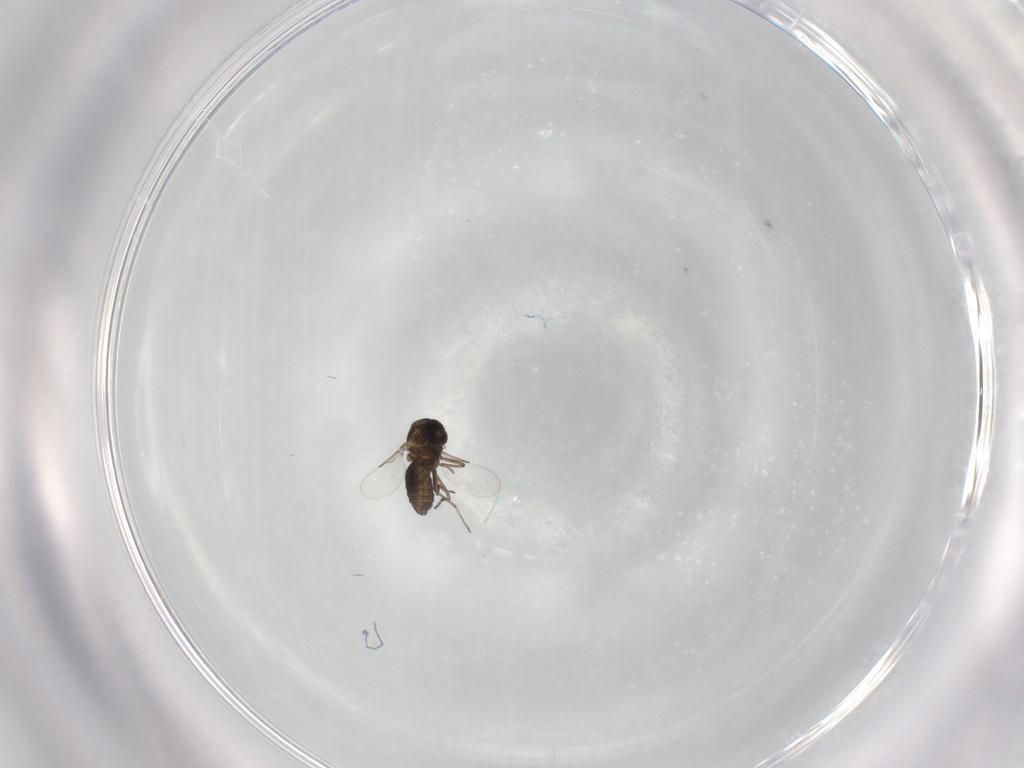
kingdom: Animalia
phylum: Arthropoda
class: Insecta
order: Diptera
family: Ceratopogonidae
